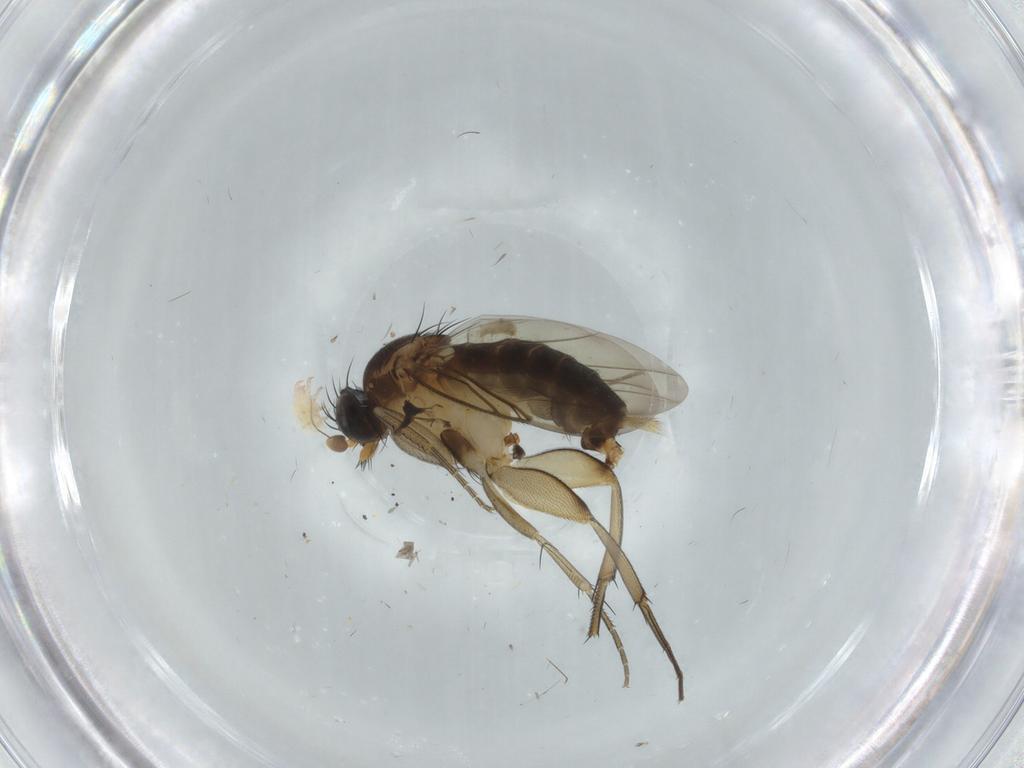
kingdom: Animalia
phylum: Arthropoda
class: Insecta
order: Diptera
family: Phoridae
